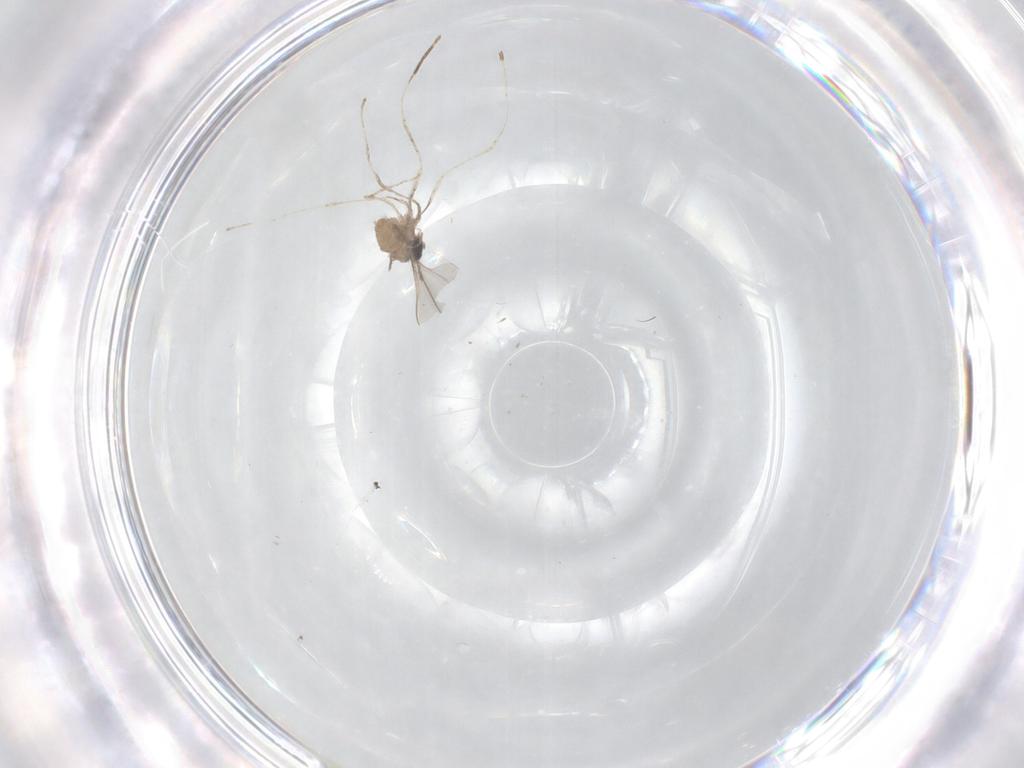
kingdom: Animalia
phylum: Arthropoda
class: Insecta
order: Diptera
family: Cecidomyiidae
